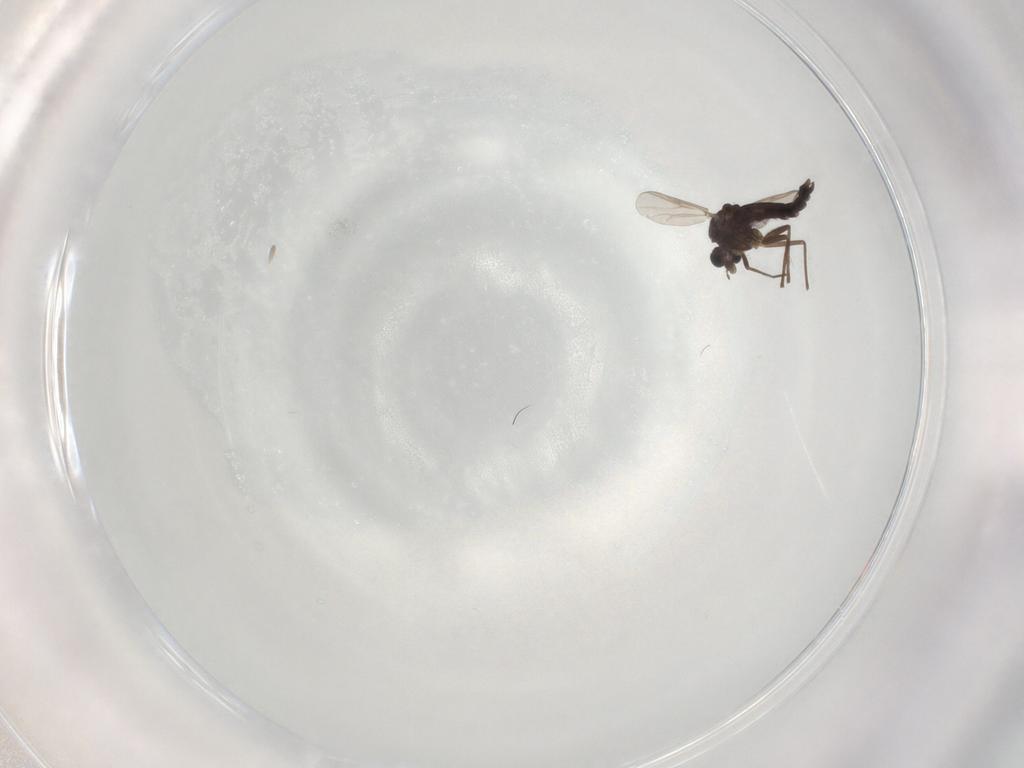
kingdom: Animalia
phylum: Arthropoda
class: Insecta
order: Diptera
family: Chironomidae
